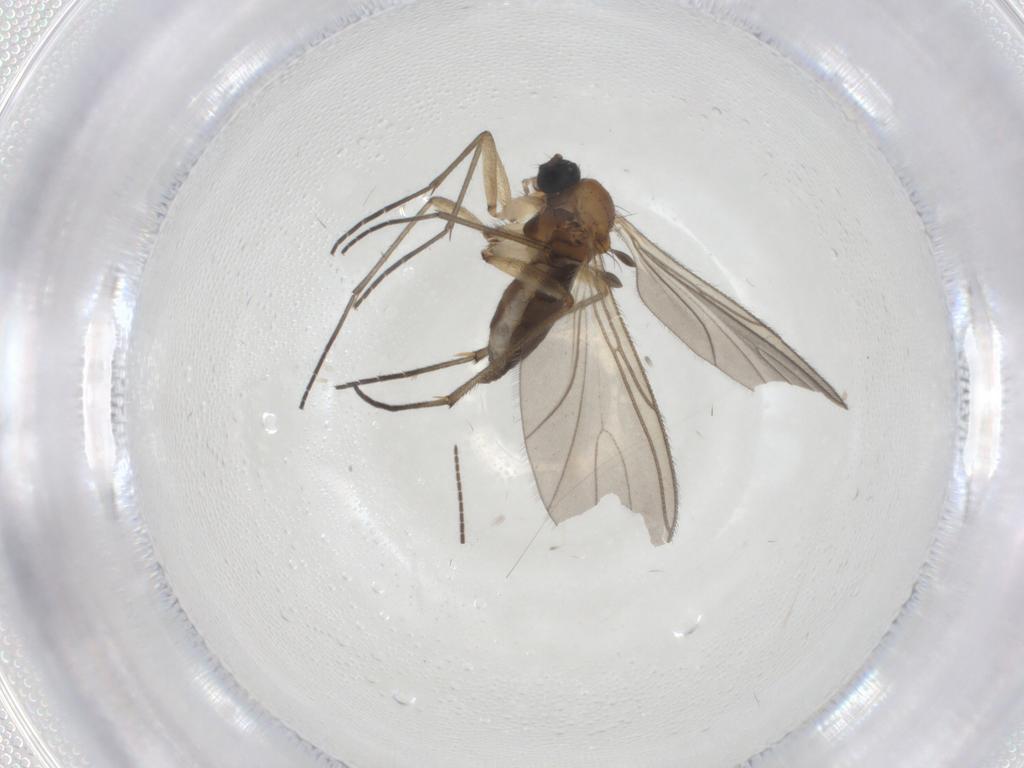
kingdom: Animalia
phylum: Arthropoda
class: Insecta
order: Diptera
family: Sciaridae
